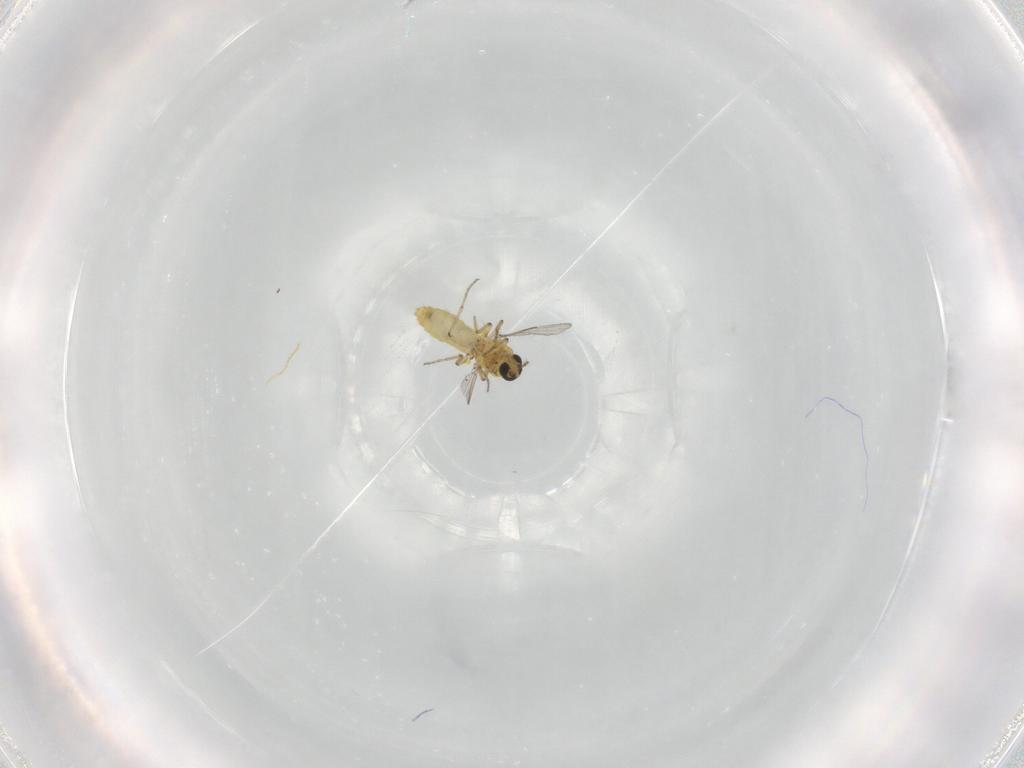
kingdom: Animalia
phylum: Arthropoda
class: Insecta
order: Diptera
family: Ceratopogonidae
